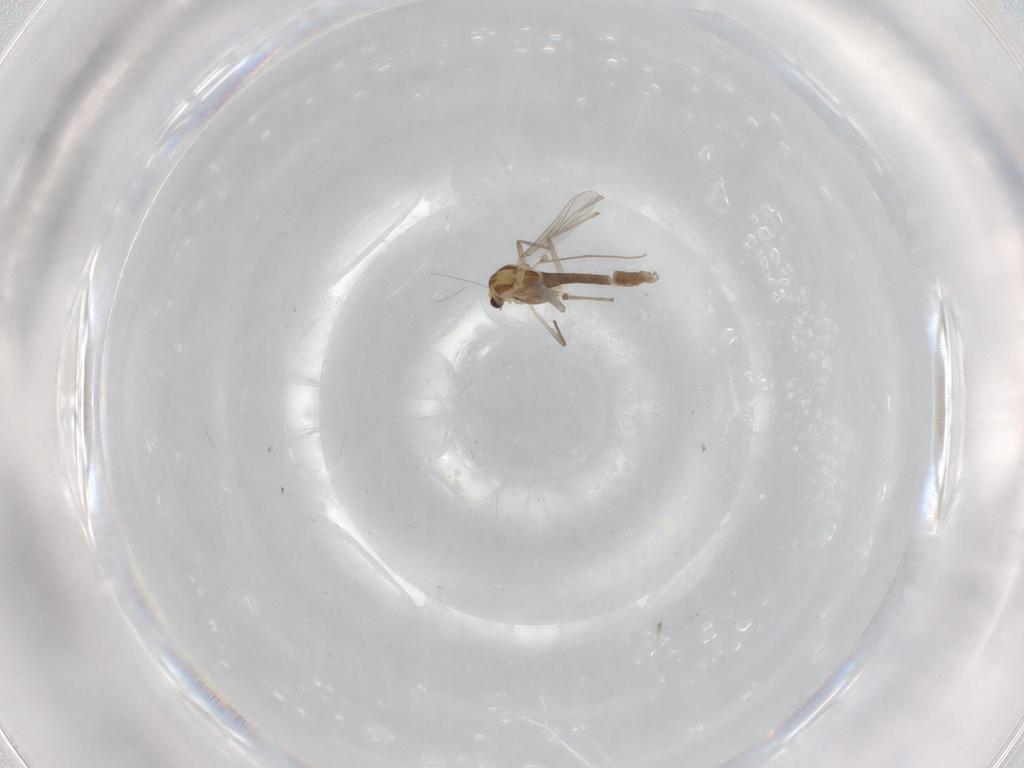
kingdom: Animalia
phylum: Arthropoda
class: Insecta
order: Diptera
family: Chironomidae
